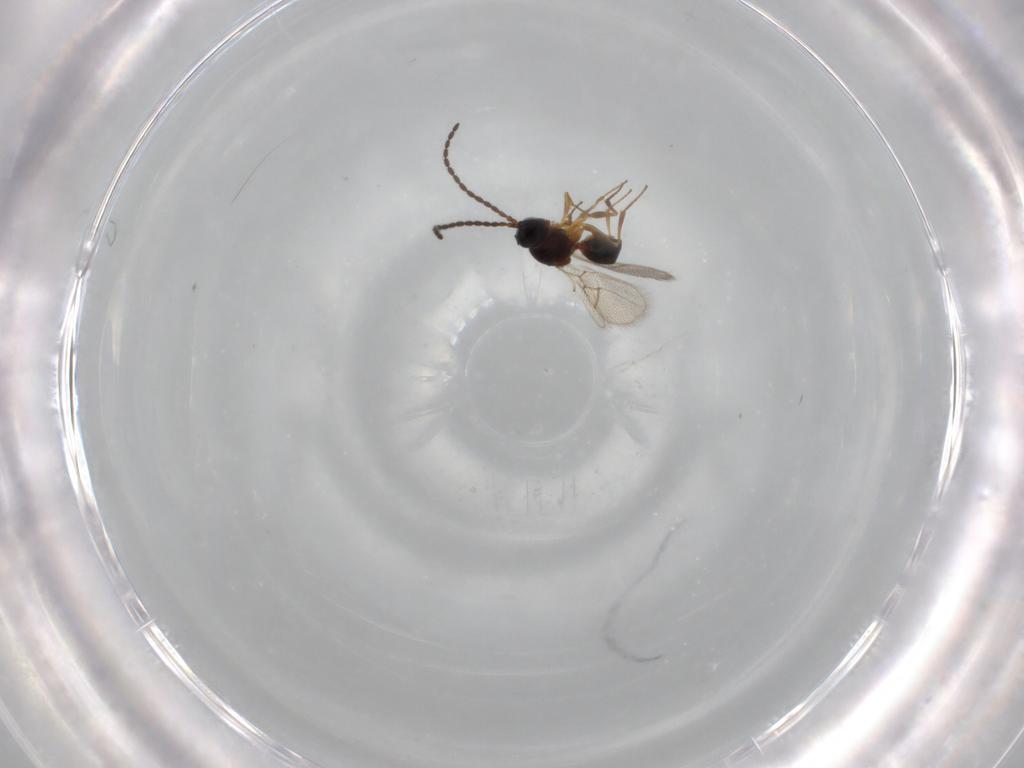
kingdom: Animalia
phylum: Arthropoda
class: Insecta
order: Hymenoptera
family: Figitidae
